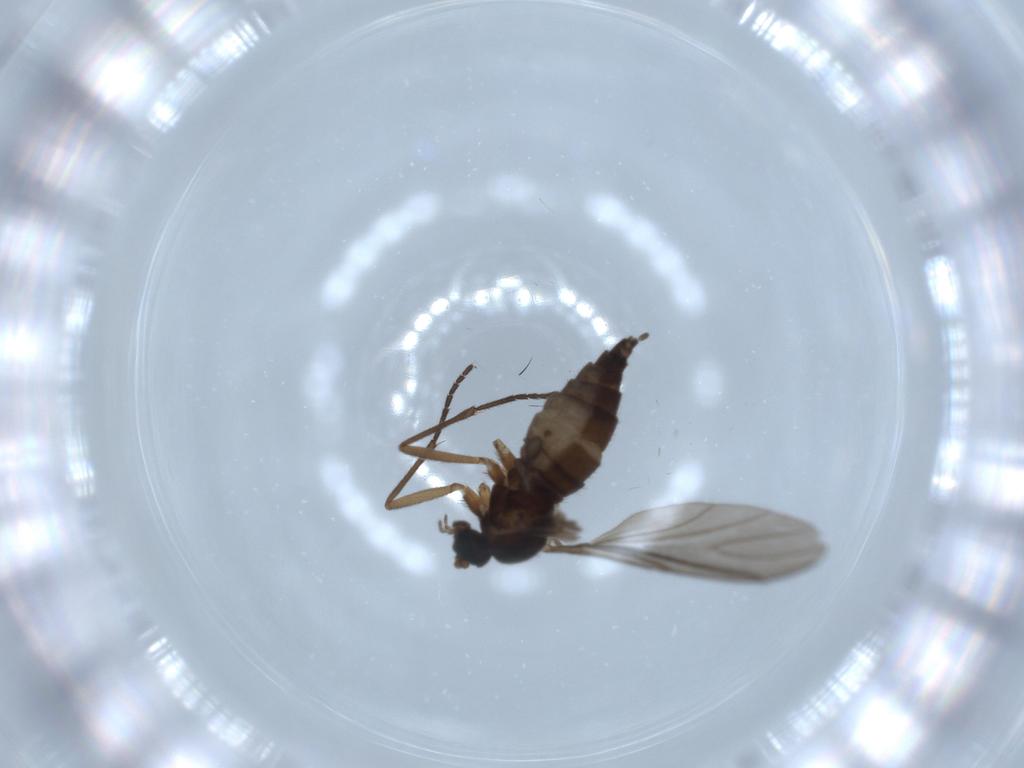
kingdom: Animalia
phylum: Arthropoda
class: Insecta
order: Diptera
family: Sciaridae
